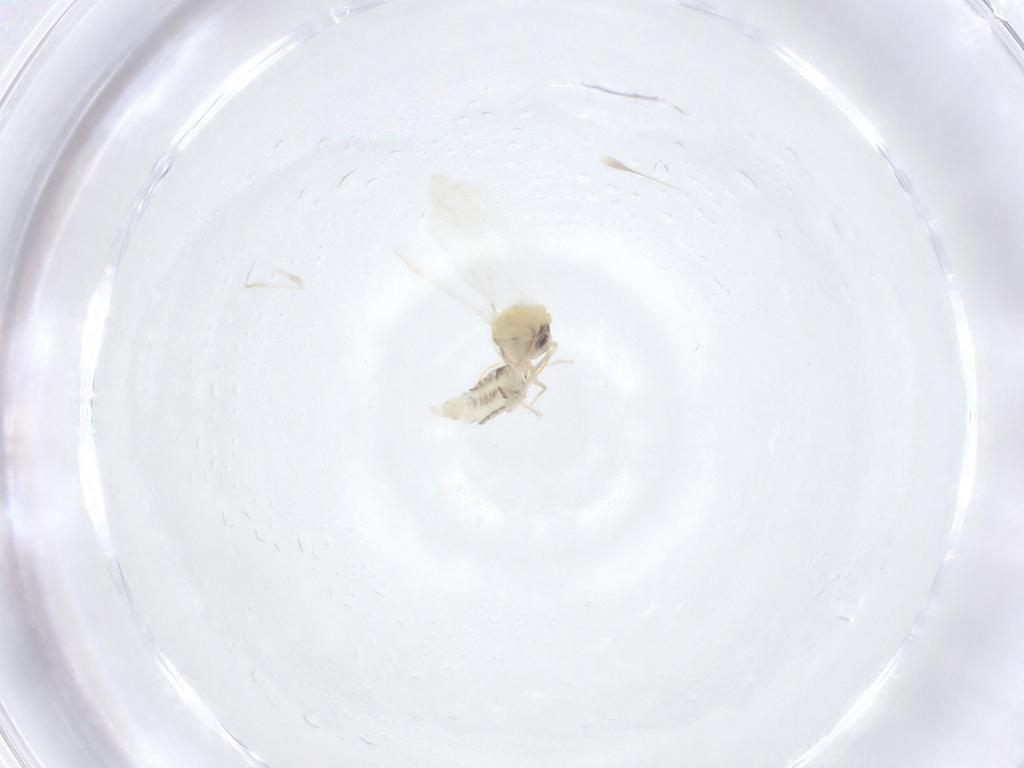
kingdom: Animalia
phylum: Arthropoda
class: Insecta
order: Hemiptera
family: Aleyrodidae
